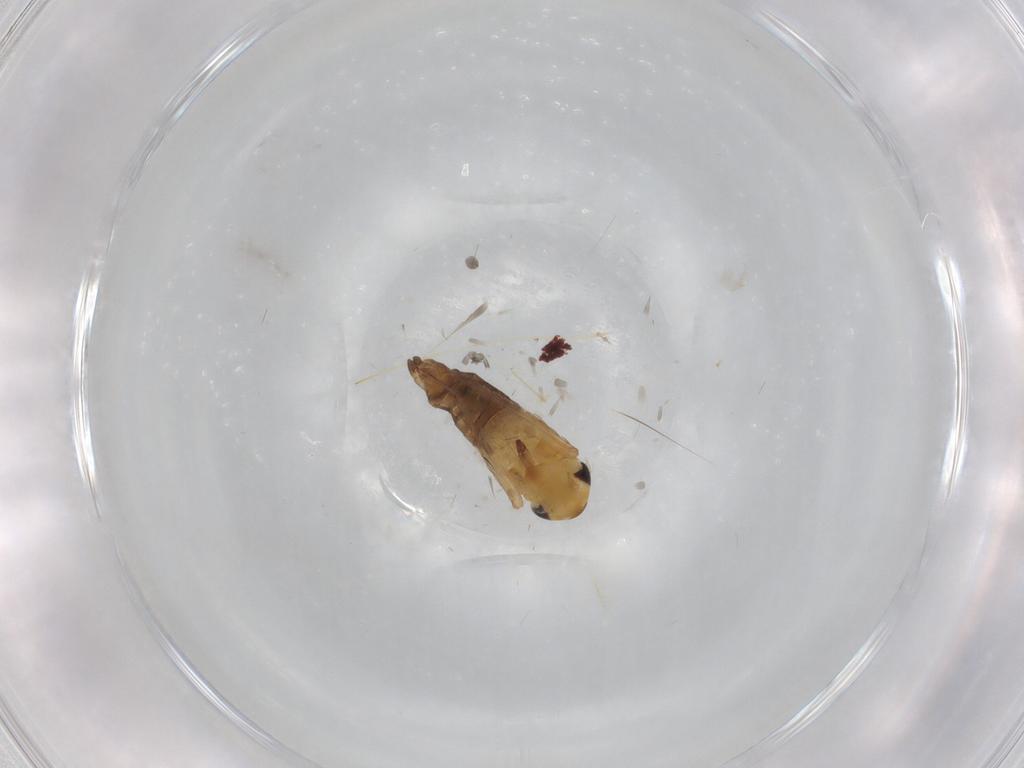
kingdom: Animalia
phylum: Arthropoda
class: Insecta
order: Hemiptera
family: Cicadellidae
